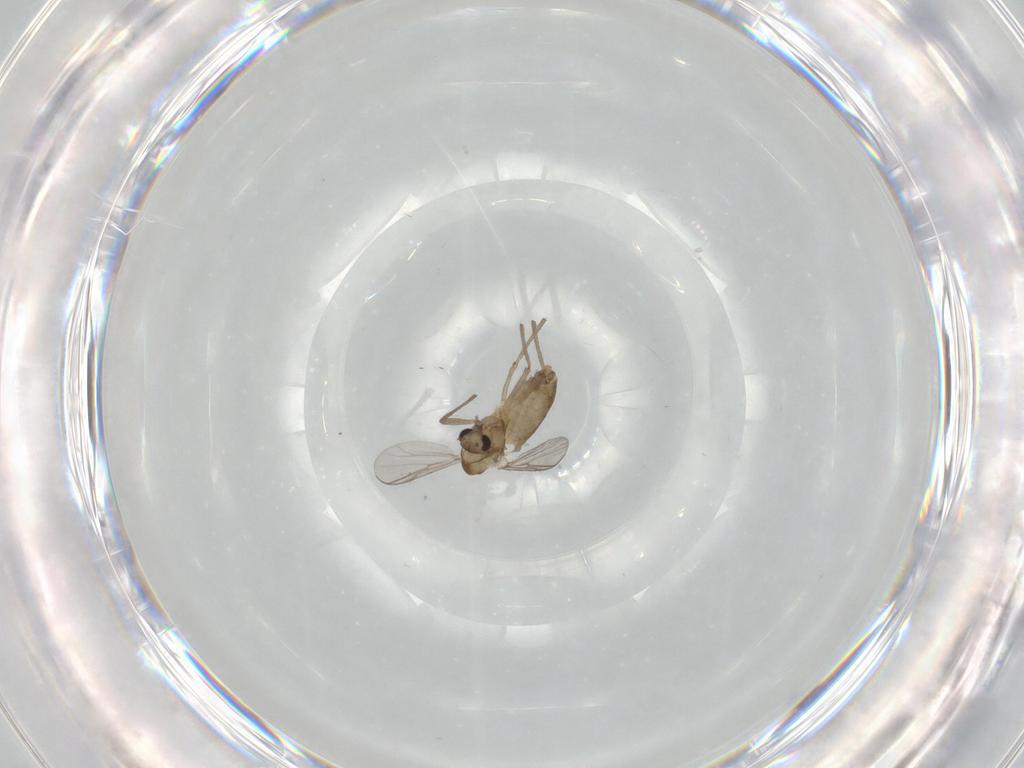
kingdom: Animalia
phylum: Arthropoda
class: Insecta
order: Diptera
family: Chironomidae
